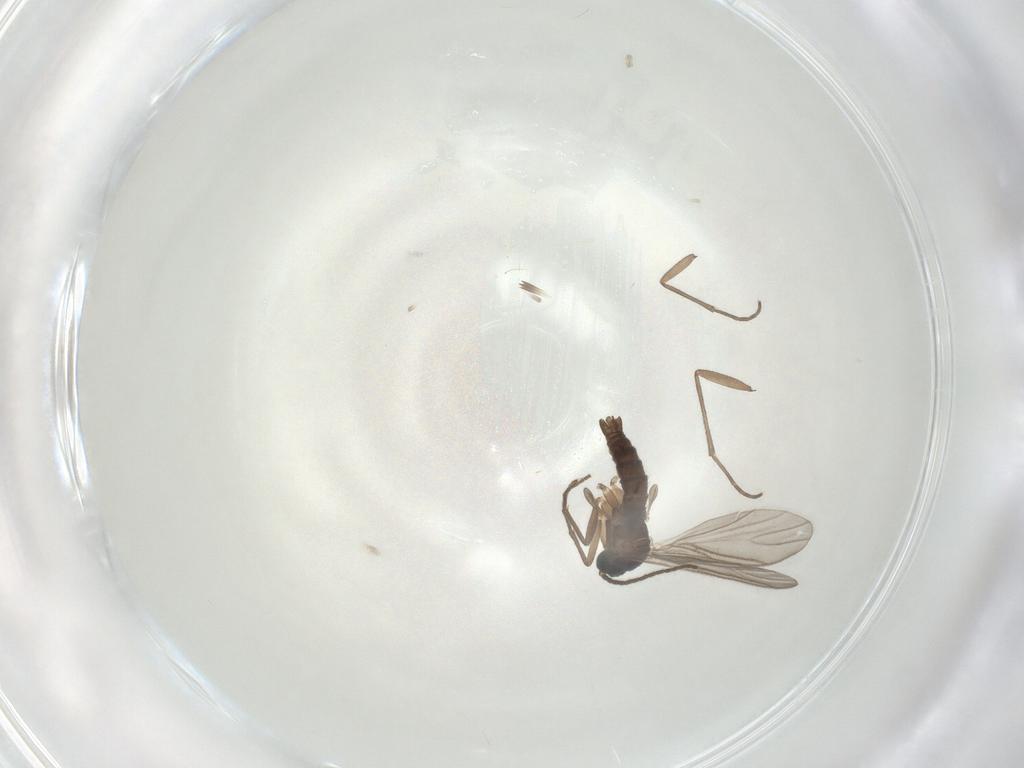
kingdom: Animalia
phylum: Arthropoda
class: Insecta
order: Diptera
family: Sciaridae
